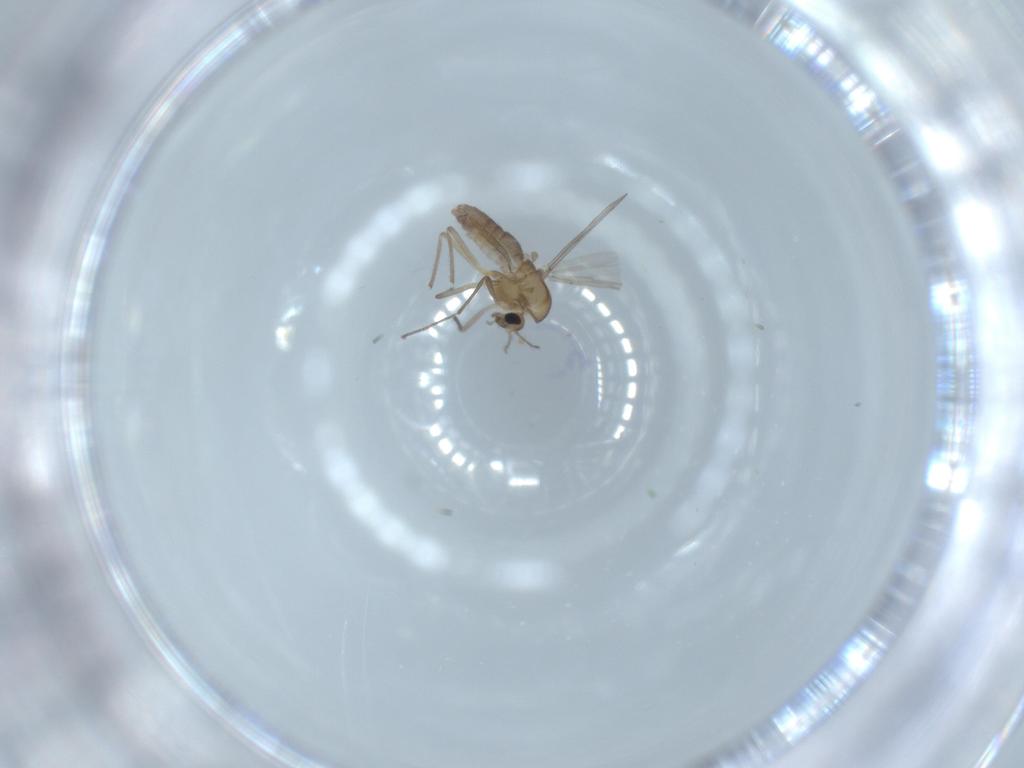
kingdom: Animalia
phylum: Arthropoda
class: Insecta
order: Diptera
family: Chironomidae
